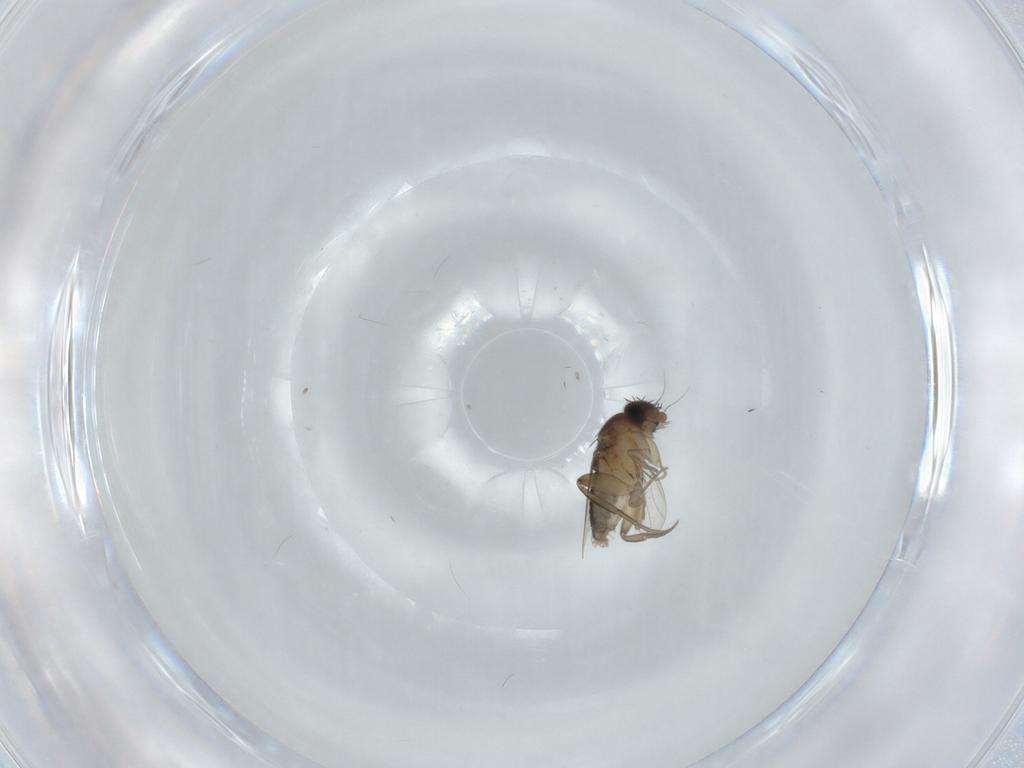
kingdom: Animalia
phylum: Arthropoda
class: Insecta
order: Diptera
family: Phoridae
